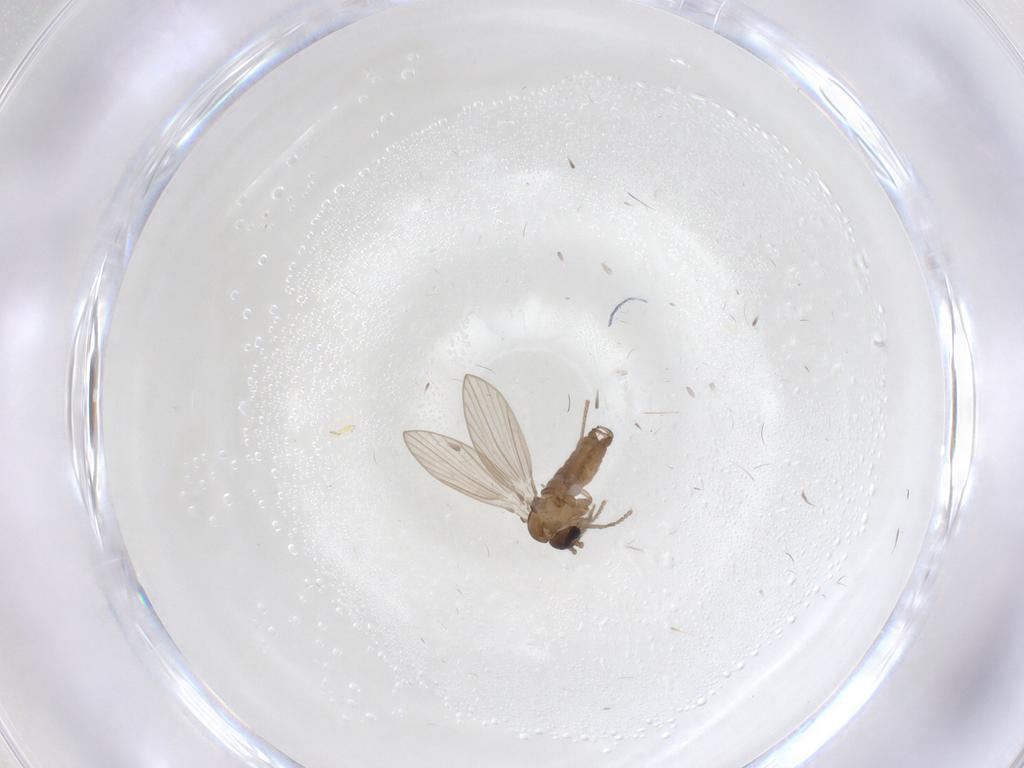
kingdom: Animalia
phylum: Arthropoda
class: Insecta
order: Diptera
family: Psychodidae
